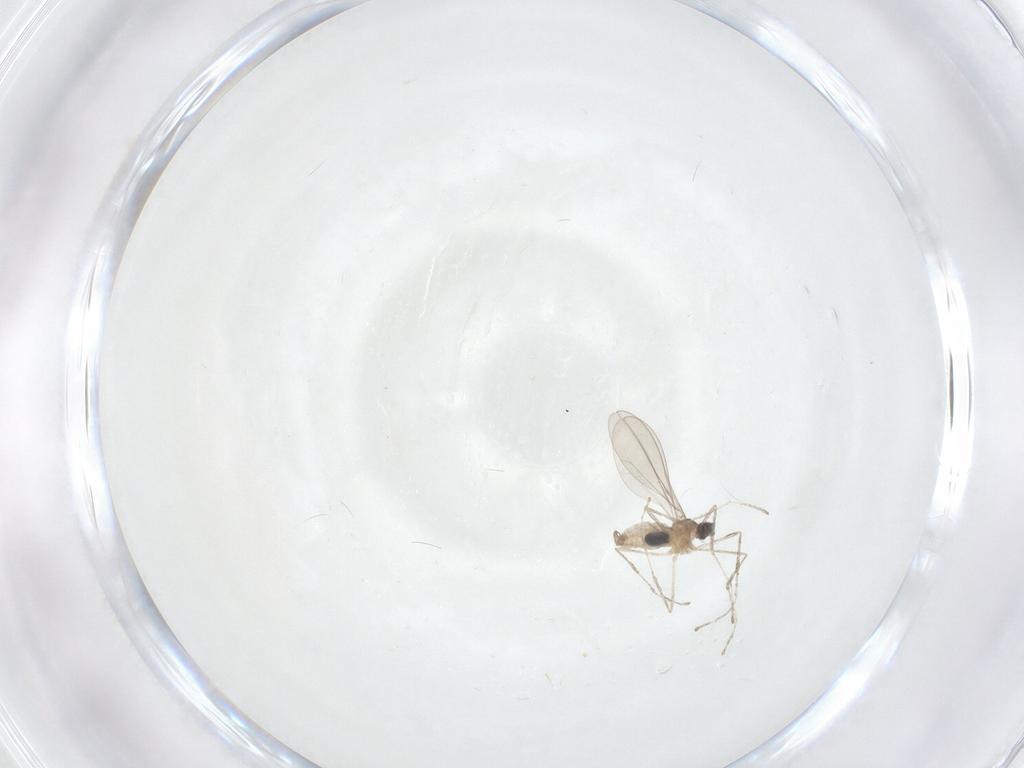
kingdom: Animalia
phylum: Arthropoda
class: Insecta
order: Diptera
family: Cecidomyiidae
